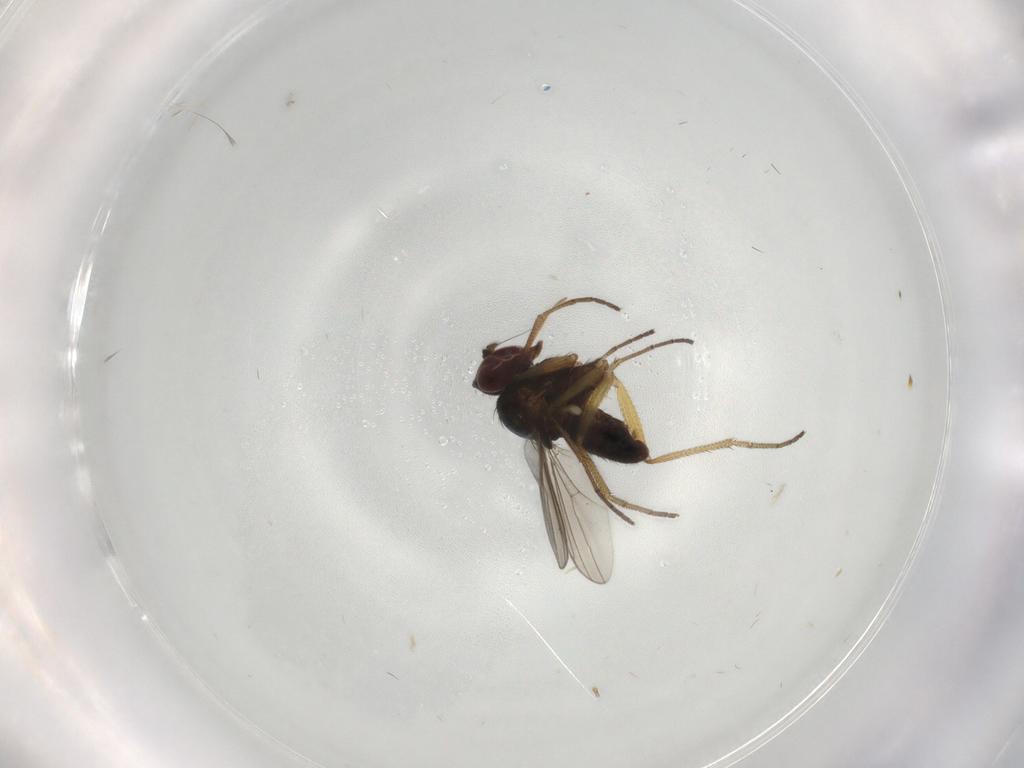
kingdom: Animalia
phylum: Arthropoda
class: Insecta
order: Diptera
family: Dolichopodidae
